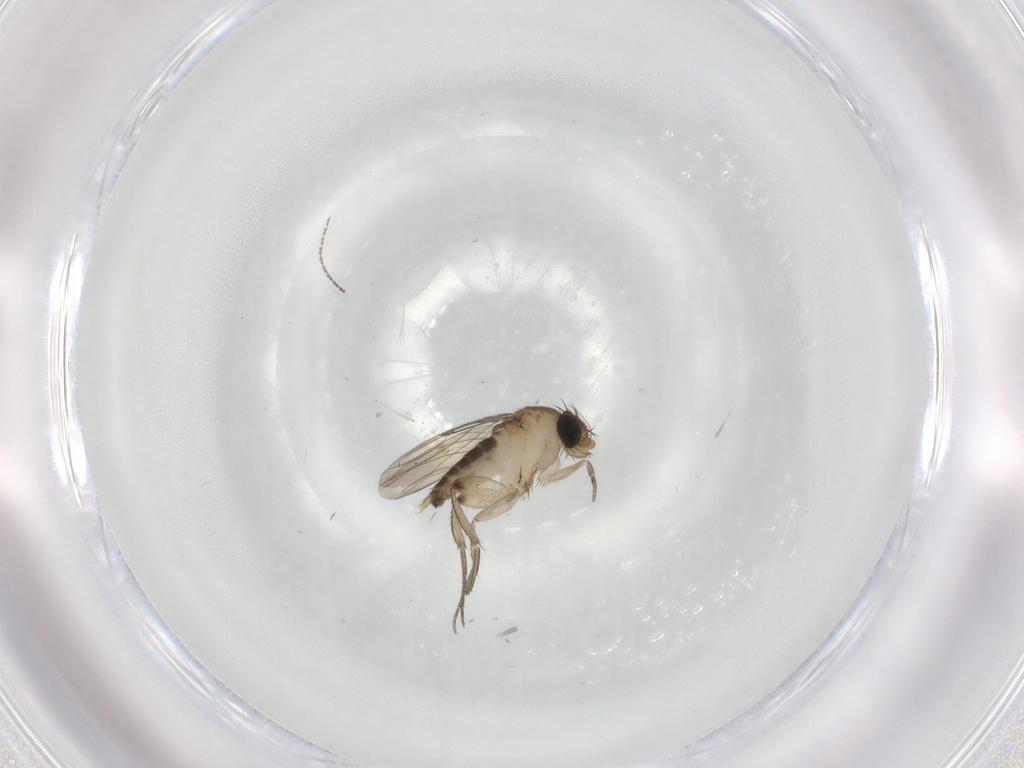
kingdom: Animalia
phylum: Arthropoda
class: Insecta
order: Diptera
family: Phoridae
